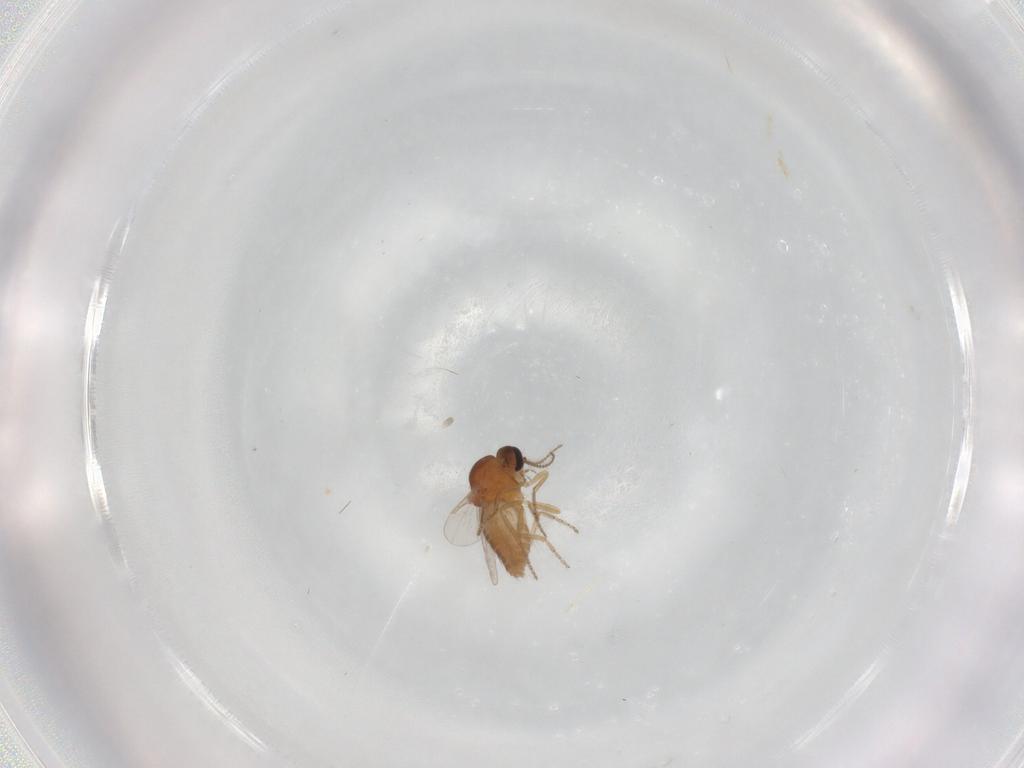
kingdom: Animalia
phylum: Arthropoda
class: Insecta
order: Diptera
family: Ceratopogonidae
